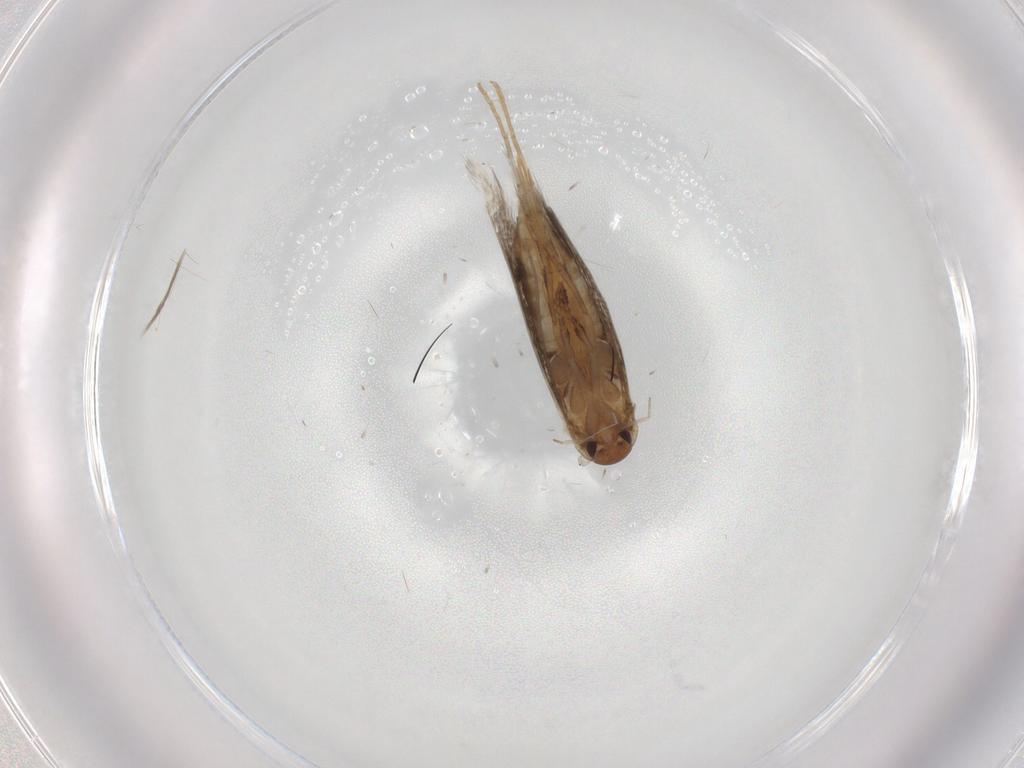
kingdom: Animalia
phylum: Arthropoda
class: Insecta
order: Lepidoptera
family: Elachistidae
